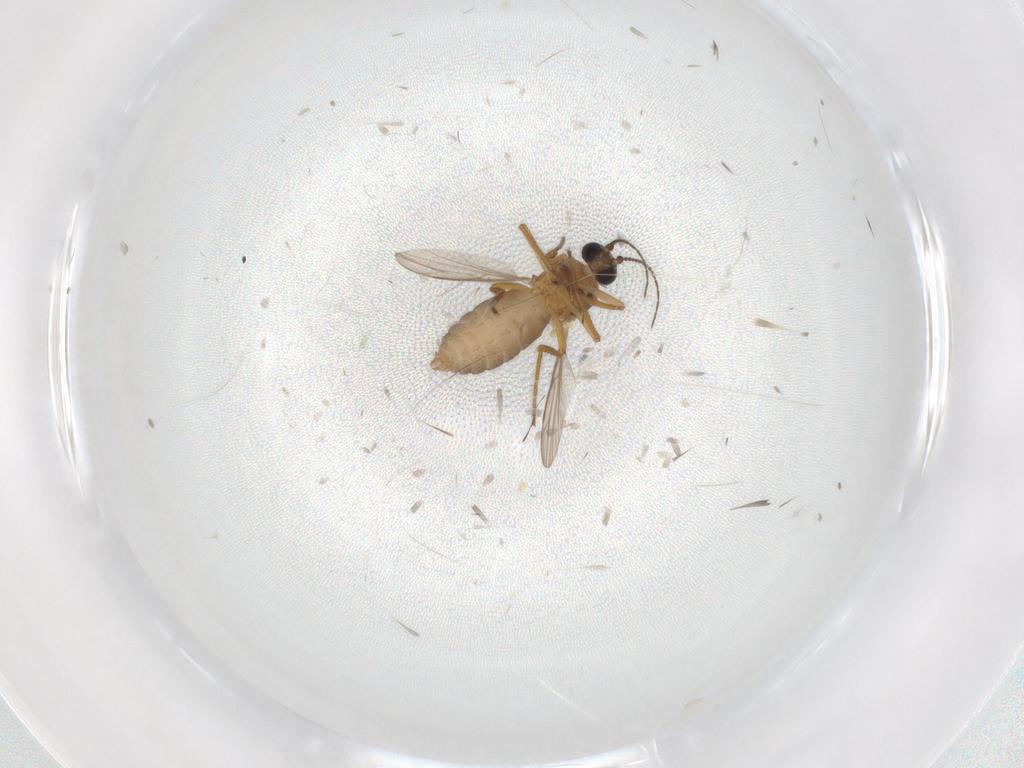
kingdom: Animalia
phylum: Arthropoda
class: Insecta
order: Diptera
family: Ceratopogonidae
